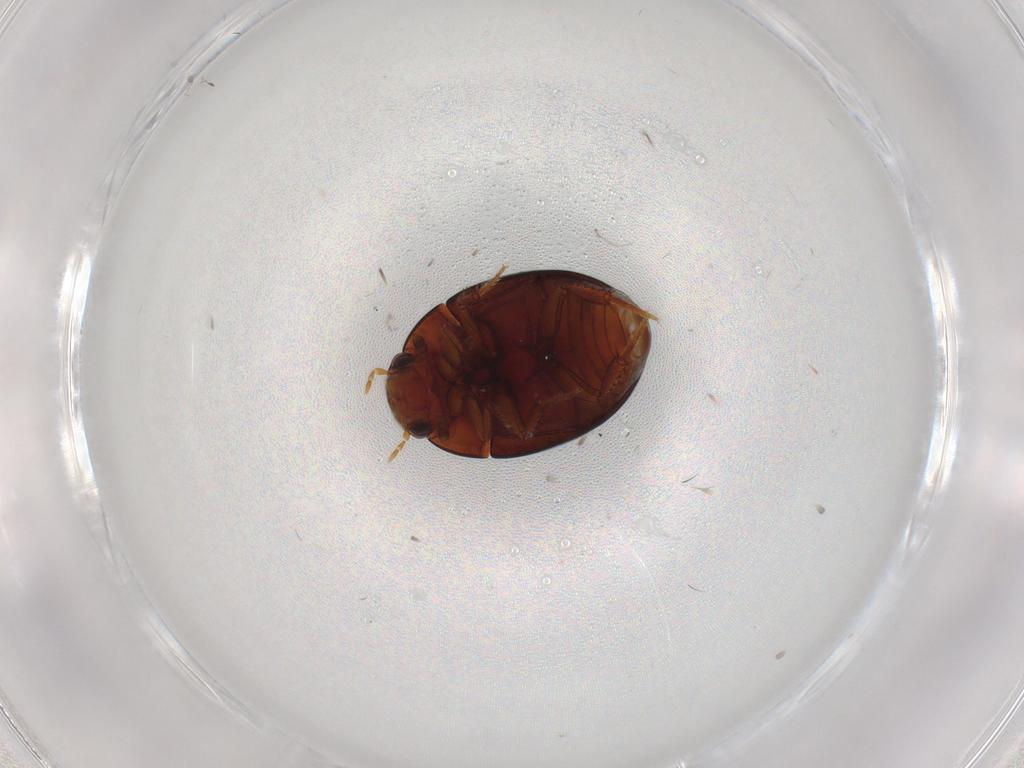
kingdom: Animalia
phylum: Arthropoda
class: Insecta
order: Coleoptera
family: Hydrophilidae
